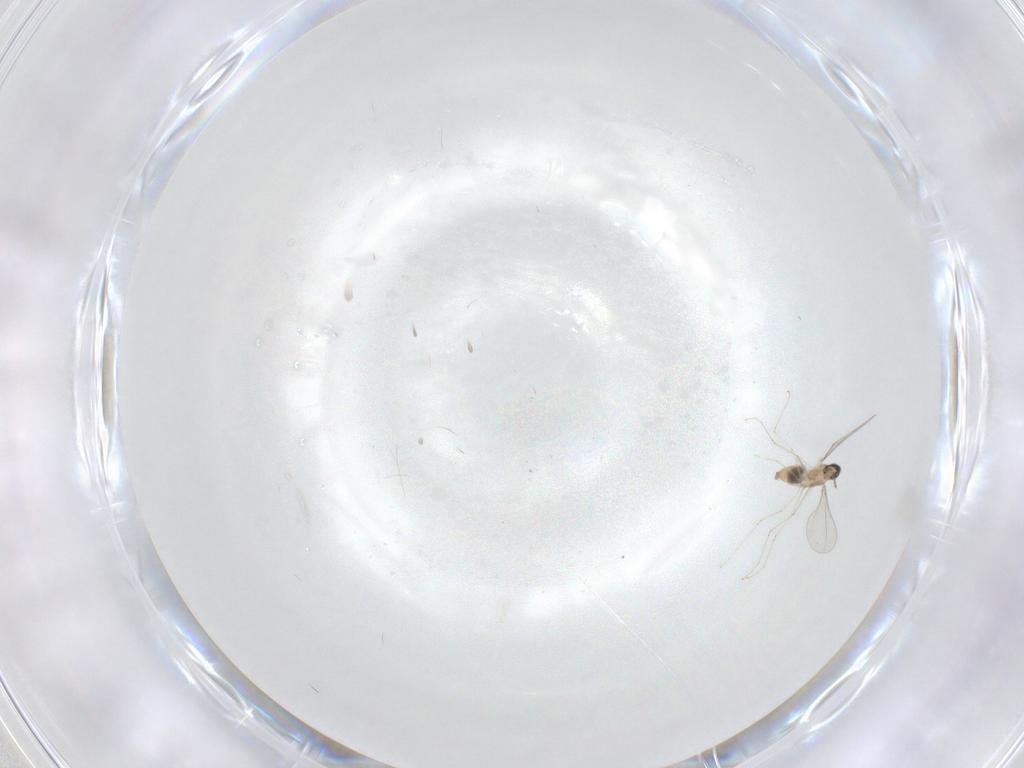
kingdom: Animalia
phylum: Arthropoda
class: Insecta
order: Diptera
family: Cecidomyiidae
